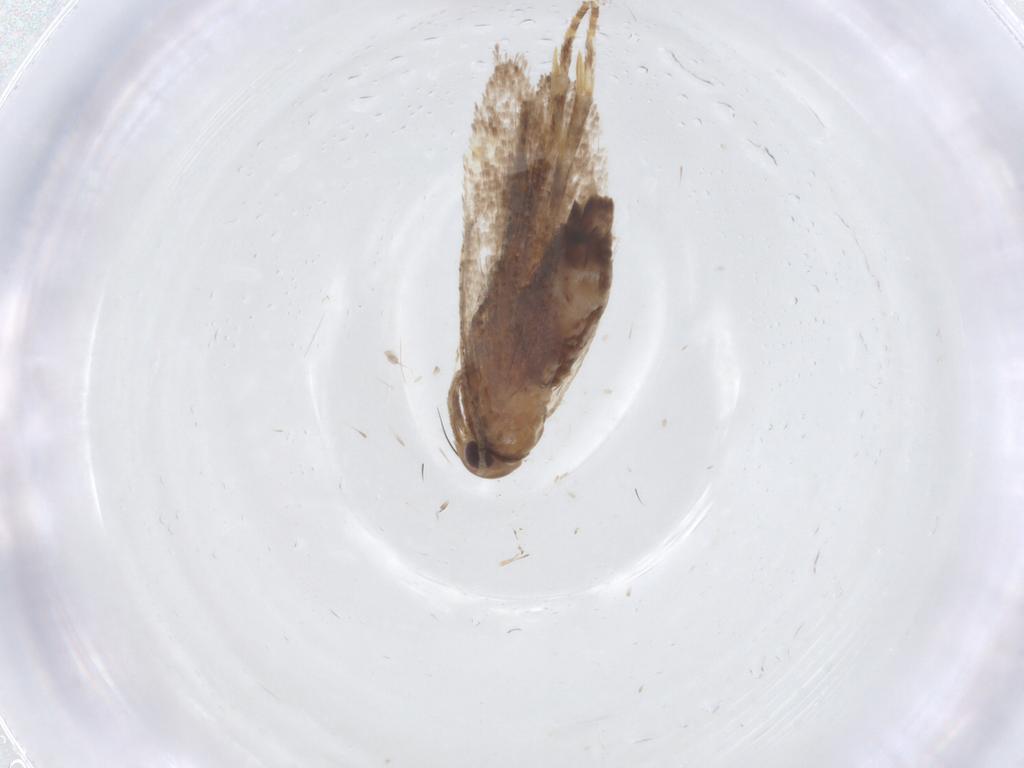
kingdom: Animalia
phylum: Arthropoda
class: Insecta
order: Lepidoptera
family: Oecophoridae
